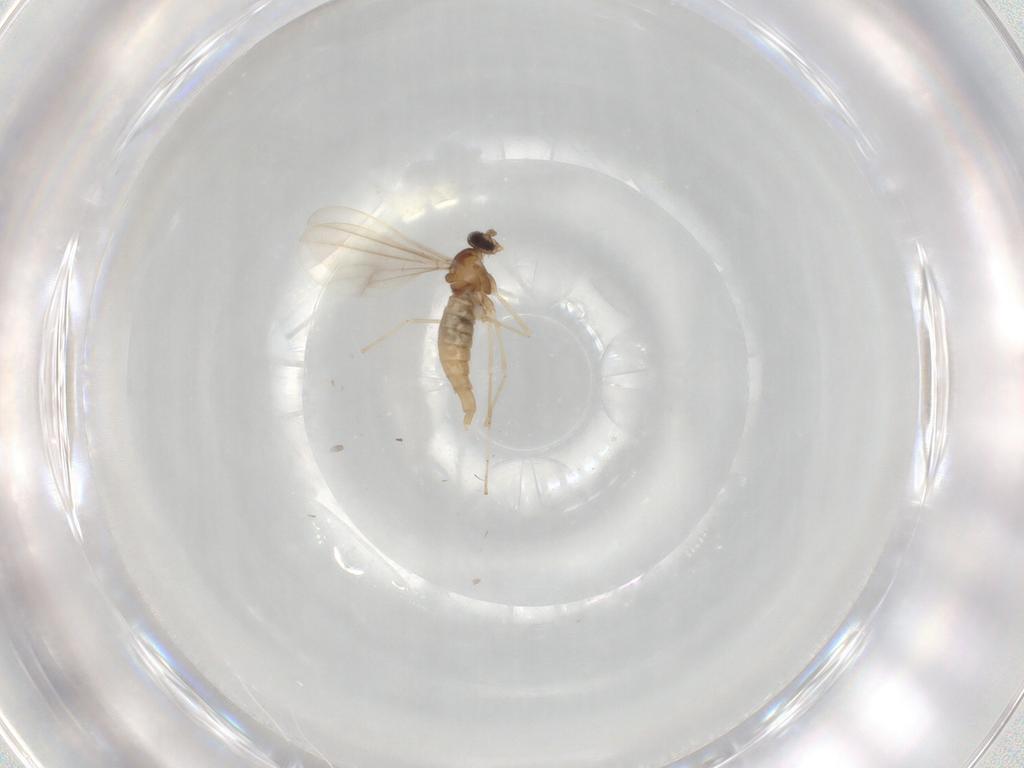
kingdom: Animalia
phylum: Arthropoda
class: Insecta
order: Diptera
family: Cecidomyiidae
